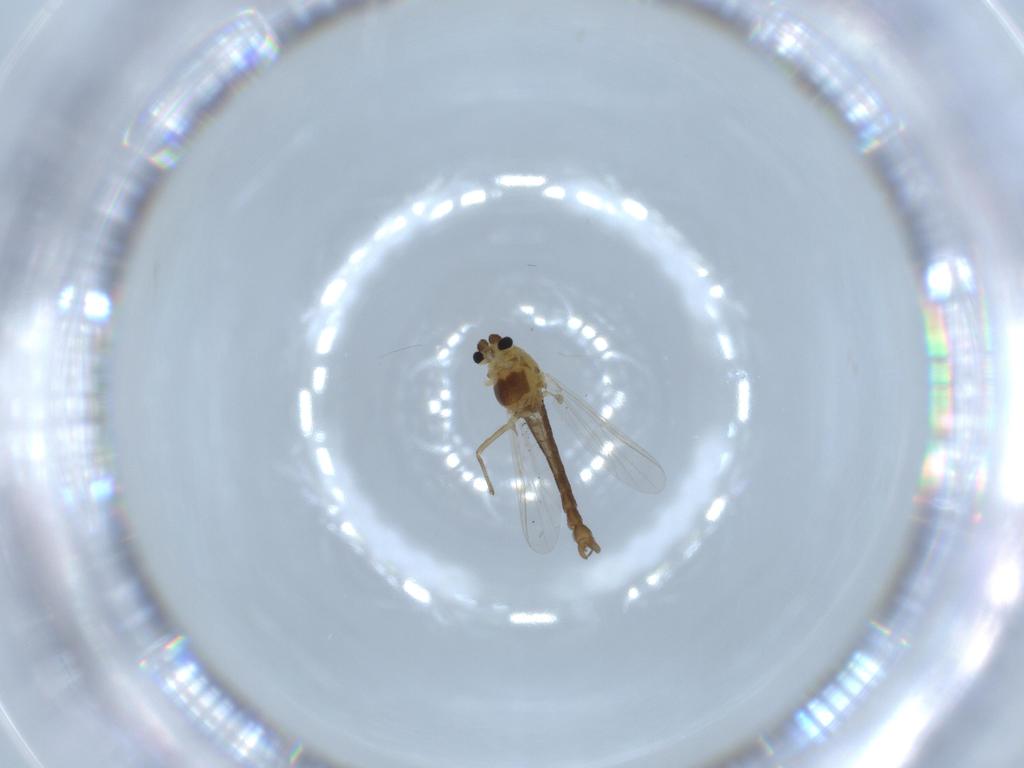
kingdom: Animalia
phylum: Arthropoda
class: Insecta
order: Diptera
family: Chironomidae
